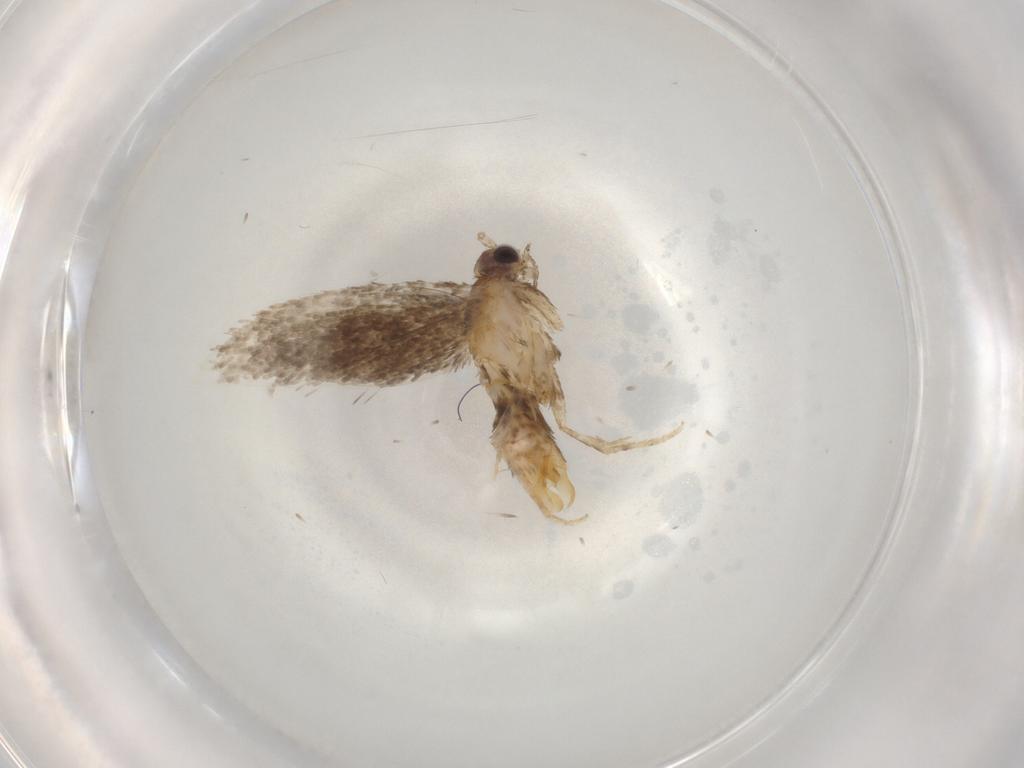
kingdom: Animalia
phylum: Arthropoda
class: Insecta
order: Lepidoptera
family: Tineidae
